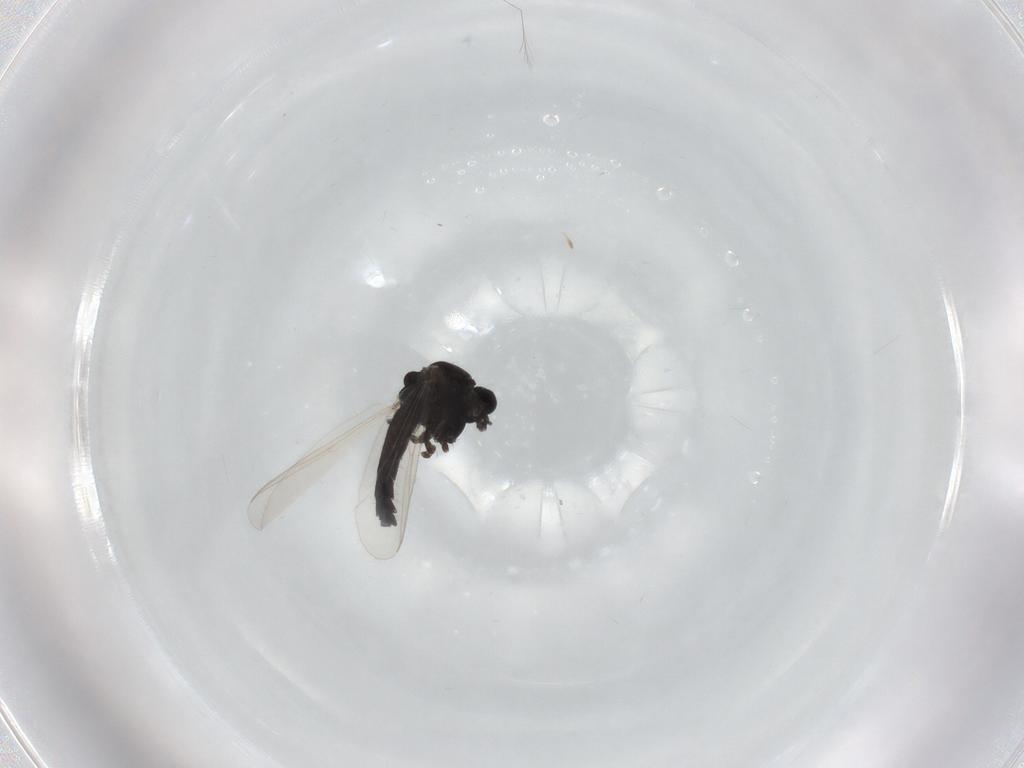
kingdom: Animalia
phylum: Arthropoda
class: Insecta
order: Diptera
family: Chironomidae
